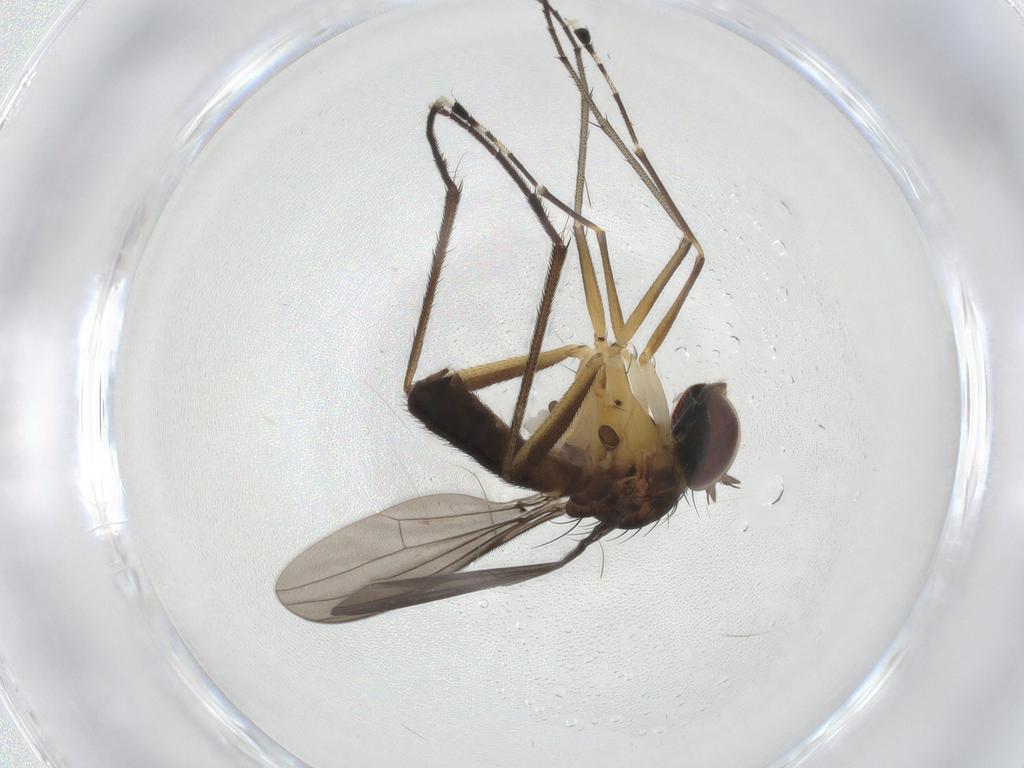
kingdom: Animalia
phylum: Arthropoda
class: Insecta
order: Diptera
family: Dolichopodidae
